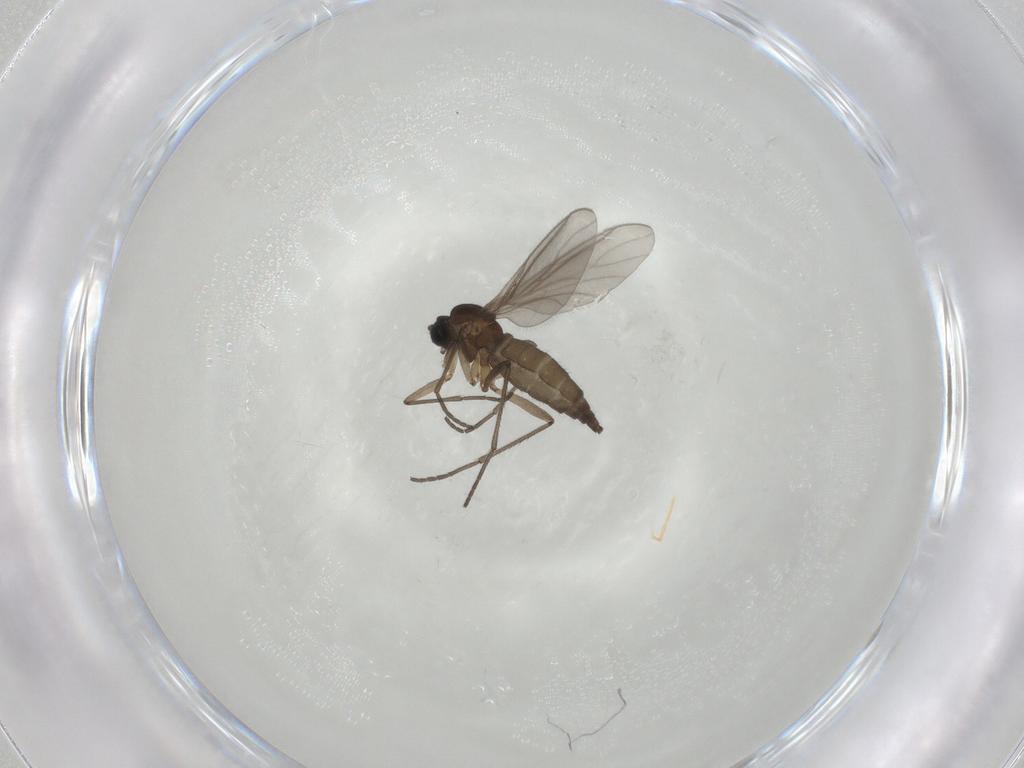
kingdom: Animalia
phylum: Arthropoda
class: Insecta
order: Diptera
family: Sciaridae
